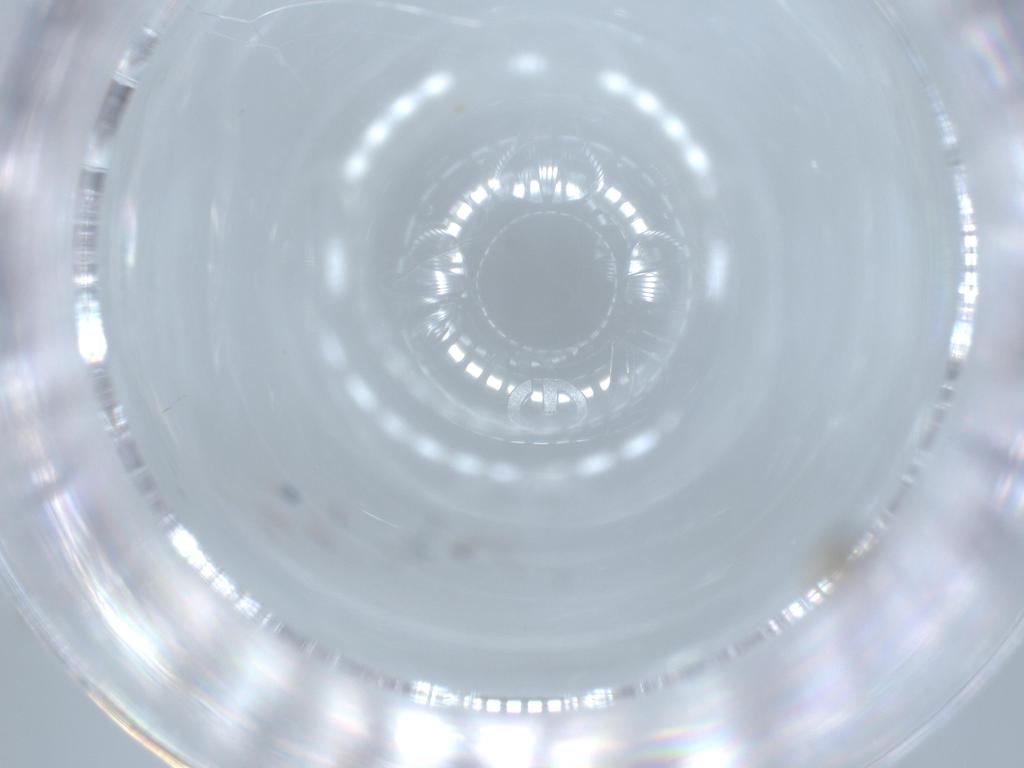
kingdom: Animalia
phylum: Arthropoda
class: Insecta
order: Diptera
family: Cecidomyiidae
